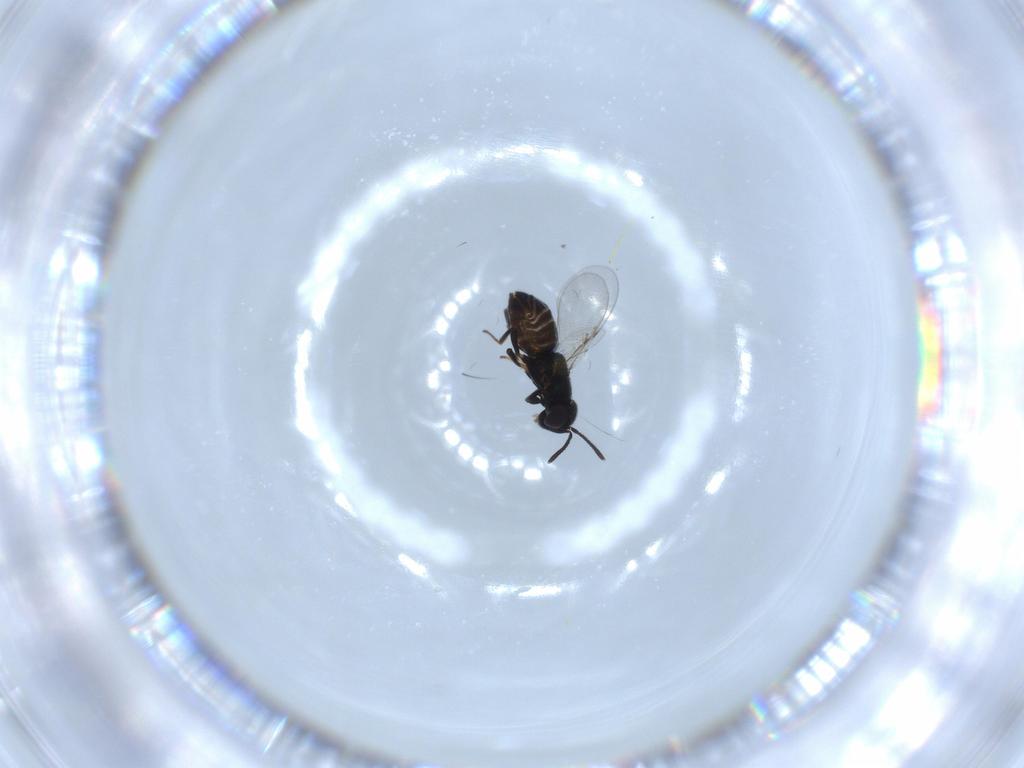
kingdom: Animalia
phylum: Arthropoda
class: Insecta
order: Hymenoptera
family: Encyrtidae
